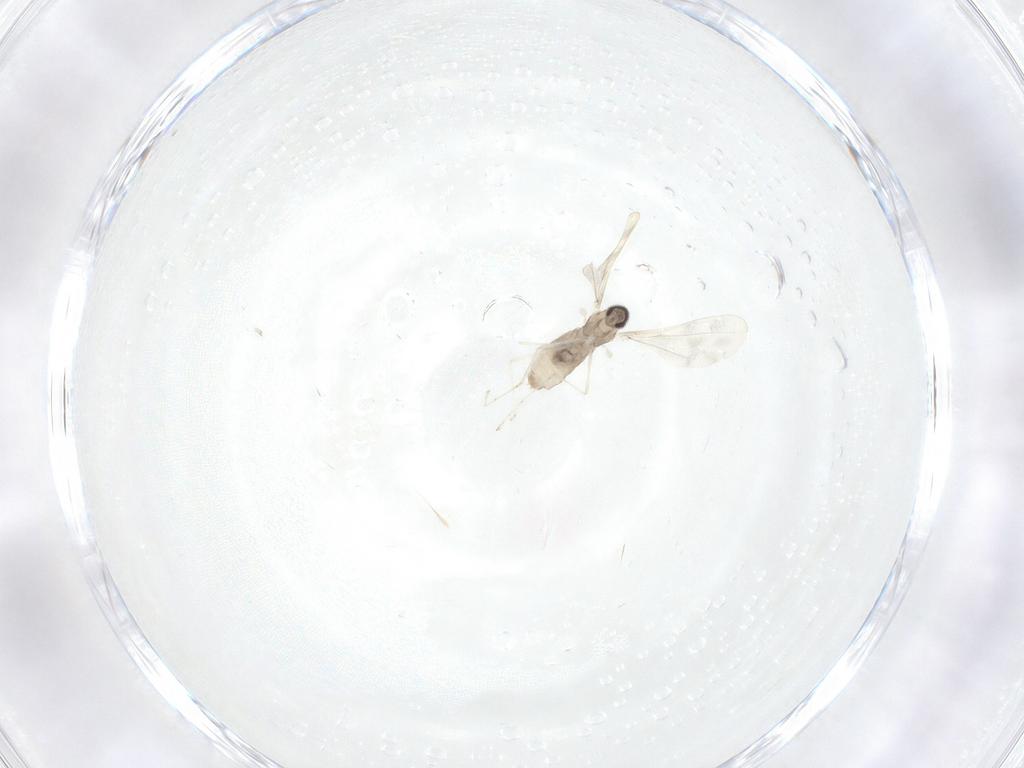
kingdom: Animalia
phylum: Arthropoda
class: Insecta
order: Diptera
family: Cecidomyiidae
